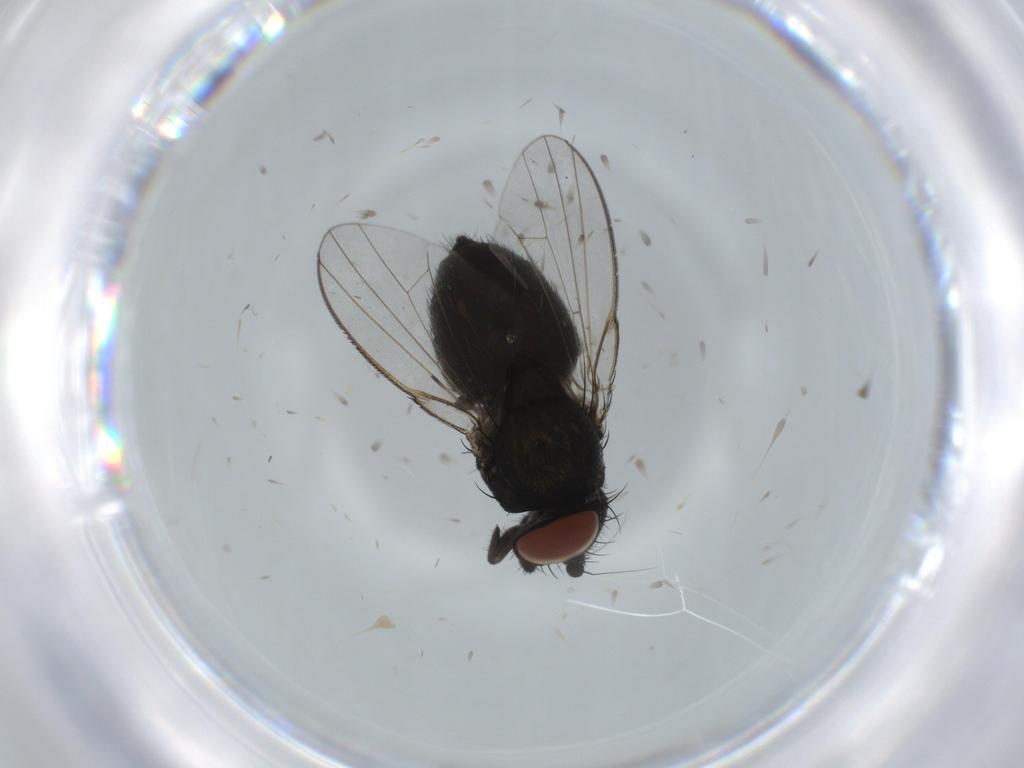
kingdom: Animalia
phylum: Arthropoda
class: Insecta
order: Diptera
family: Milichiidae
